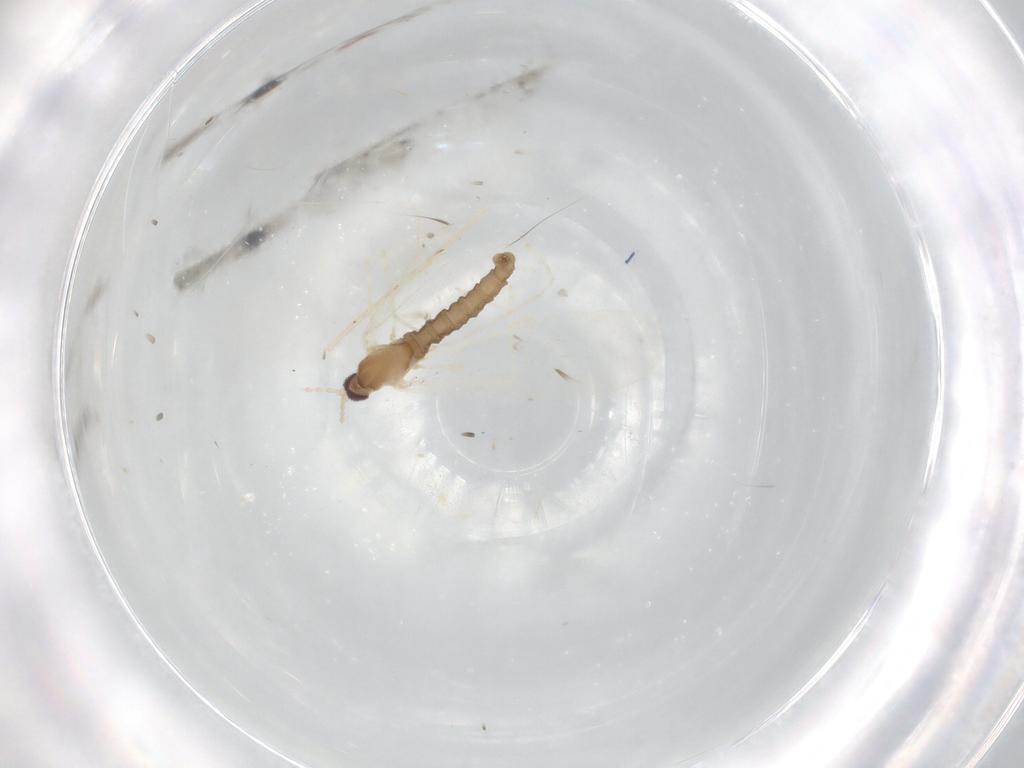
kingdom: Animalia
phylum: Arthropoda
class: Insecta
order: Diptera
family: Cecidomyiidae
